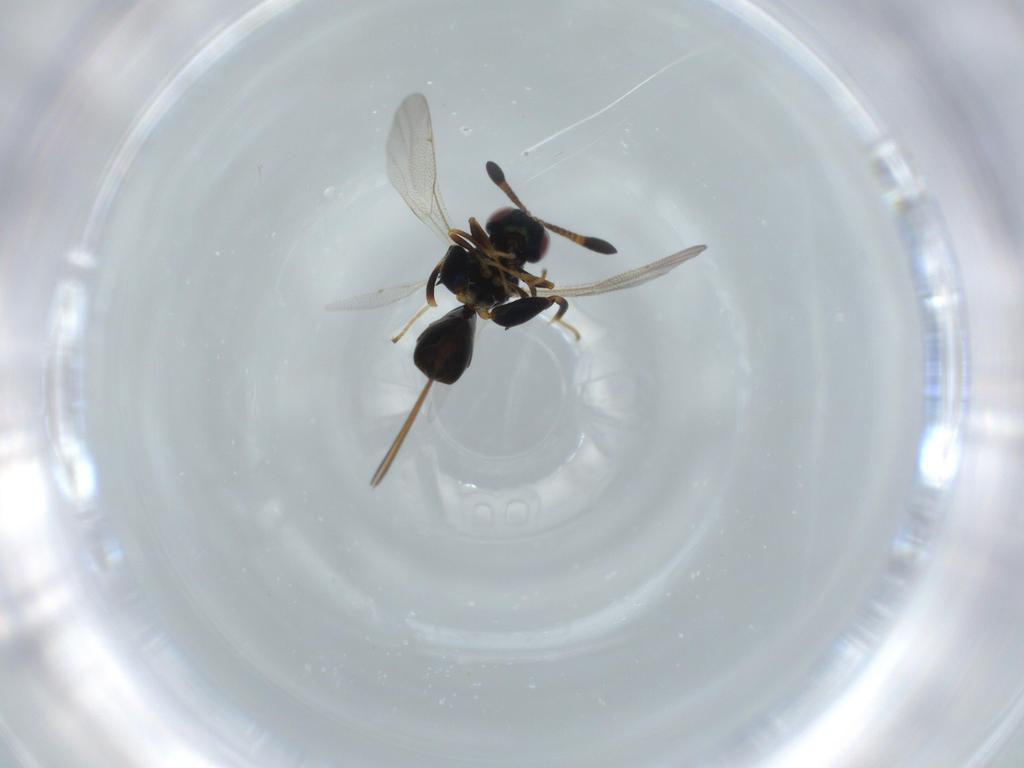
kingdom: Animalia
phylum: Arthropoda
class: Insecta
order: Hymenoptera
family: Torymidae
